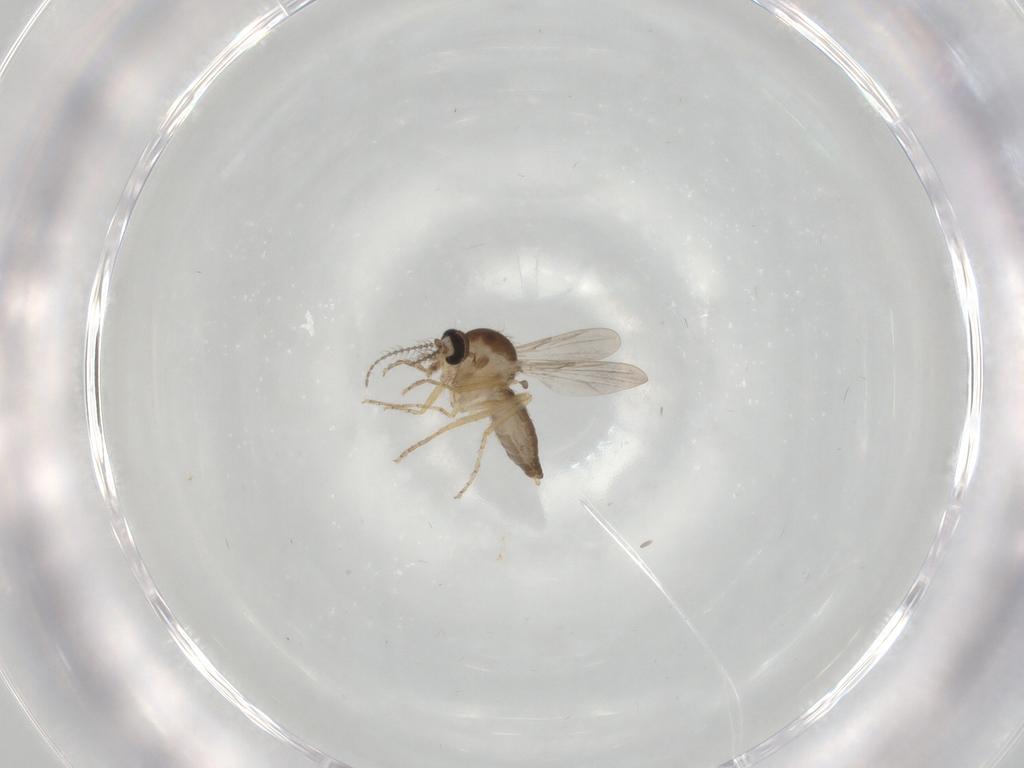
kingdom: Animalia
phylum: Arthropoda
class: Insecta
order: Diptera
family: Ceratopogonidae
